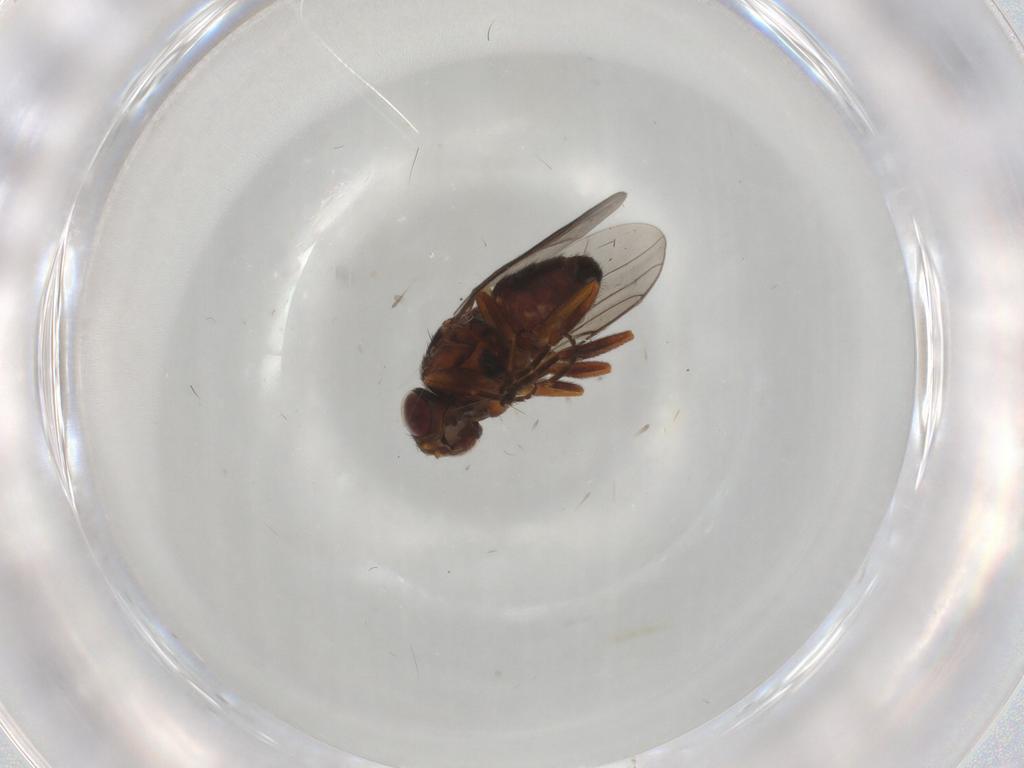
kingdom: Animalia
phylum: Arthropoda
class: Insecta
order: Diptera
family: Chloropidae
